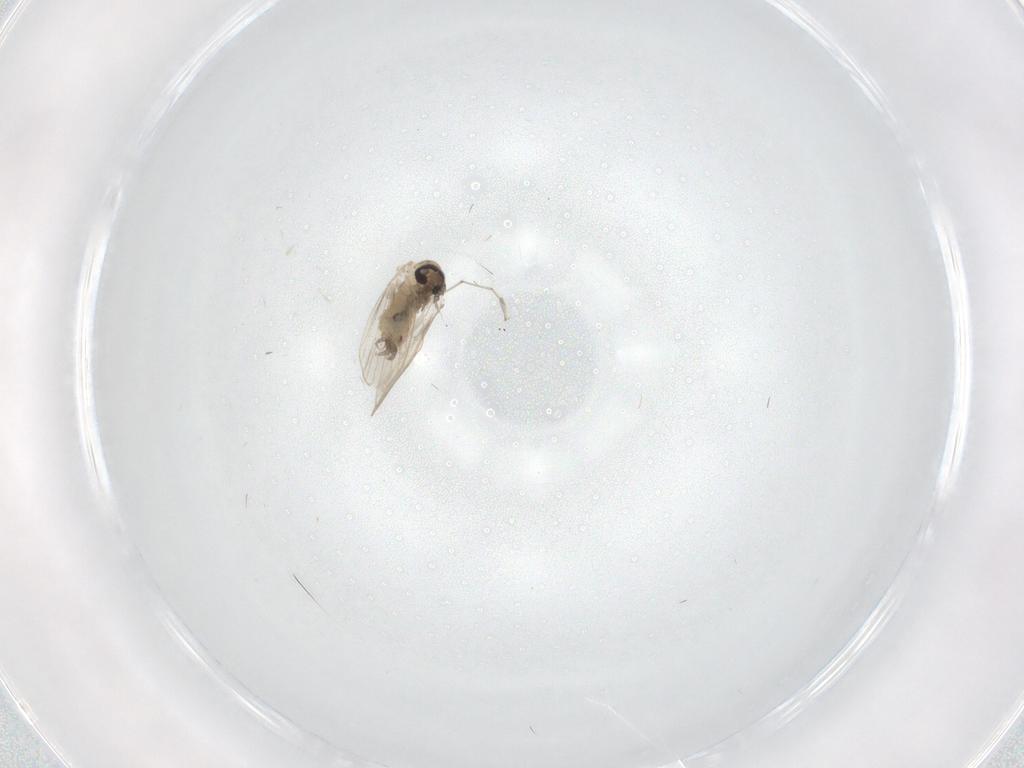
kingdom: Animalia
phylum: Arthropoda
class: Insecta
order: Diptera
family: Psychodidae
